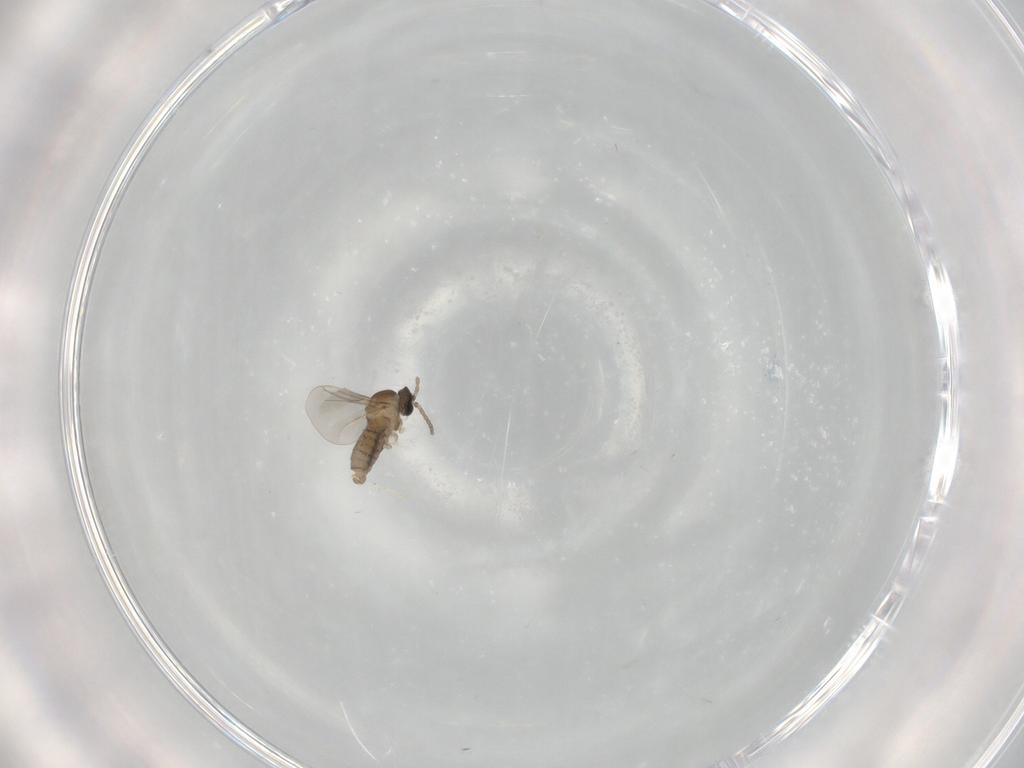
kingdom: Animalia
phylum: Arthropoda
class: Insecta
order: Diptera
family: Cecidomyiidae
